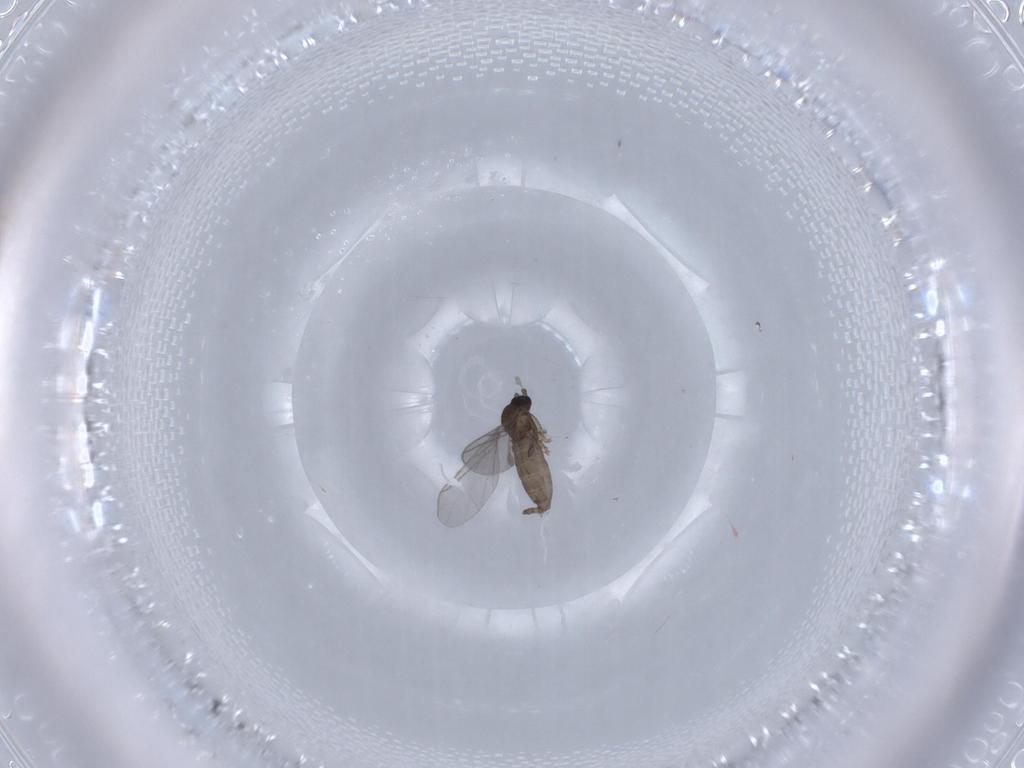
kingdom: Animalia
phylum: Arthropoda
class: Insecta
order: Diptera
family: Sciaridae
